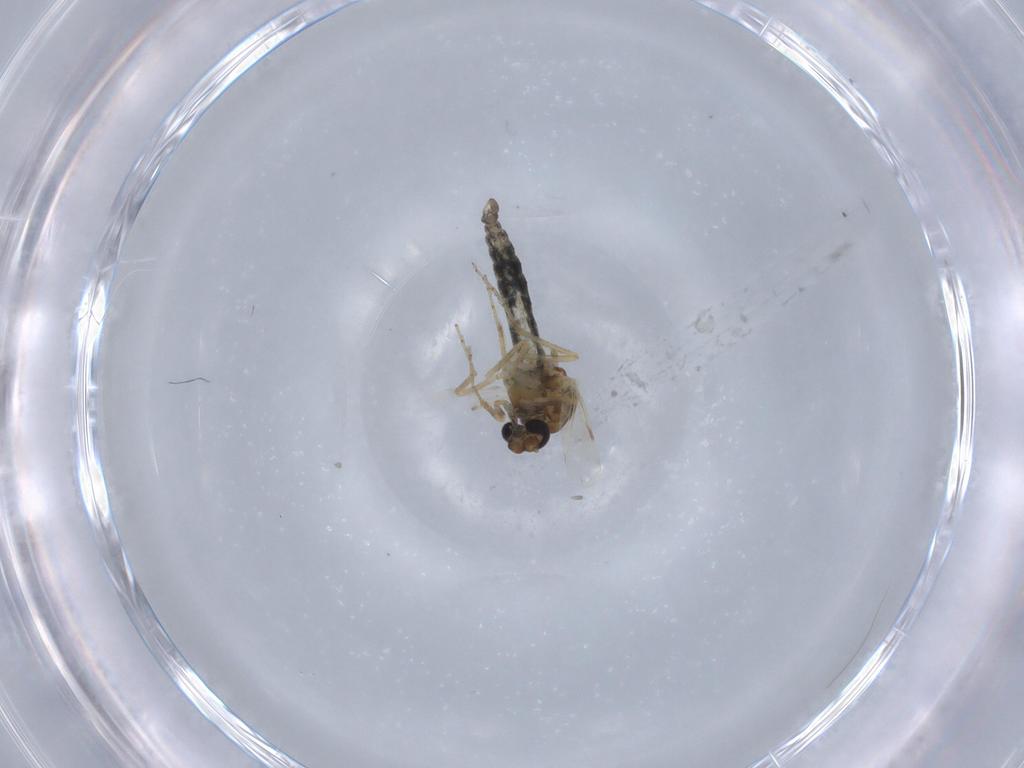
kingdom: Animalia
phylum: Arthropoda
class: Insecta
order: Diptera
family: Ceratopogonidae
